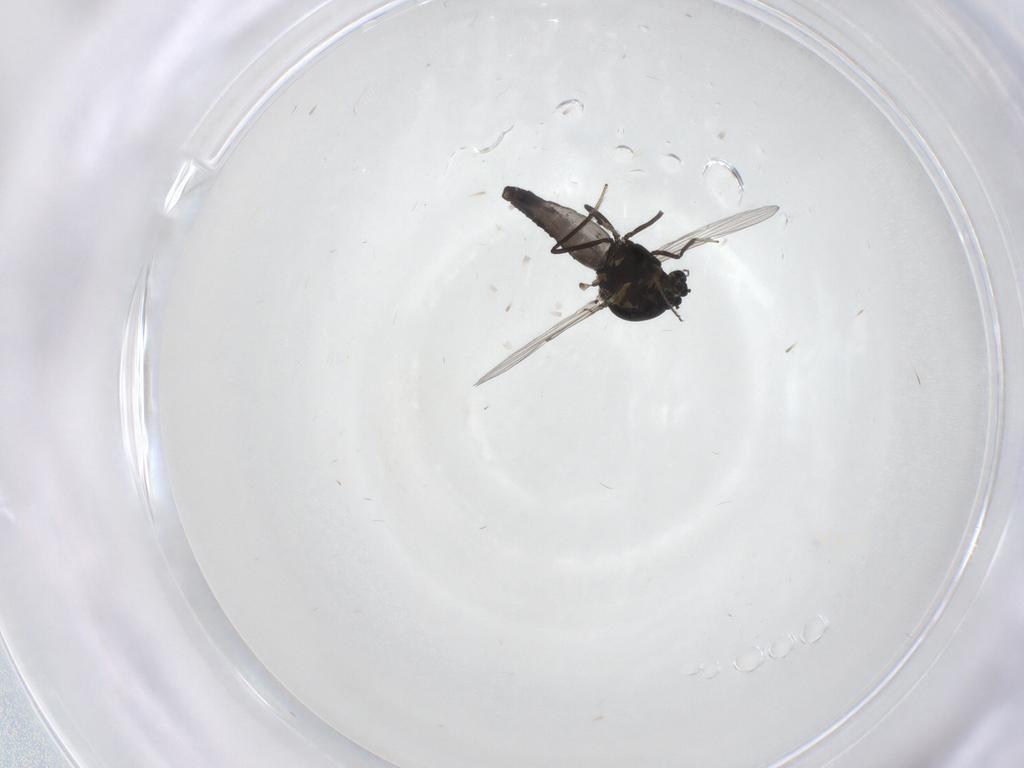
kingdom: Animalia
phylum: Arthropoda
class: Insecta
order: Diptera
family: Ceratopogonidae
